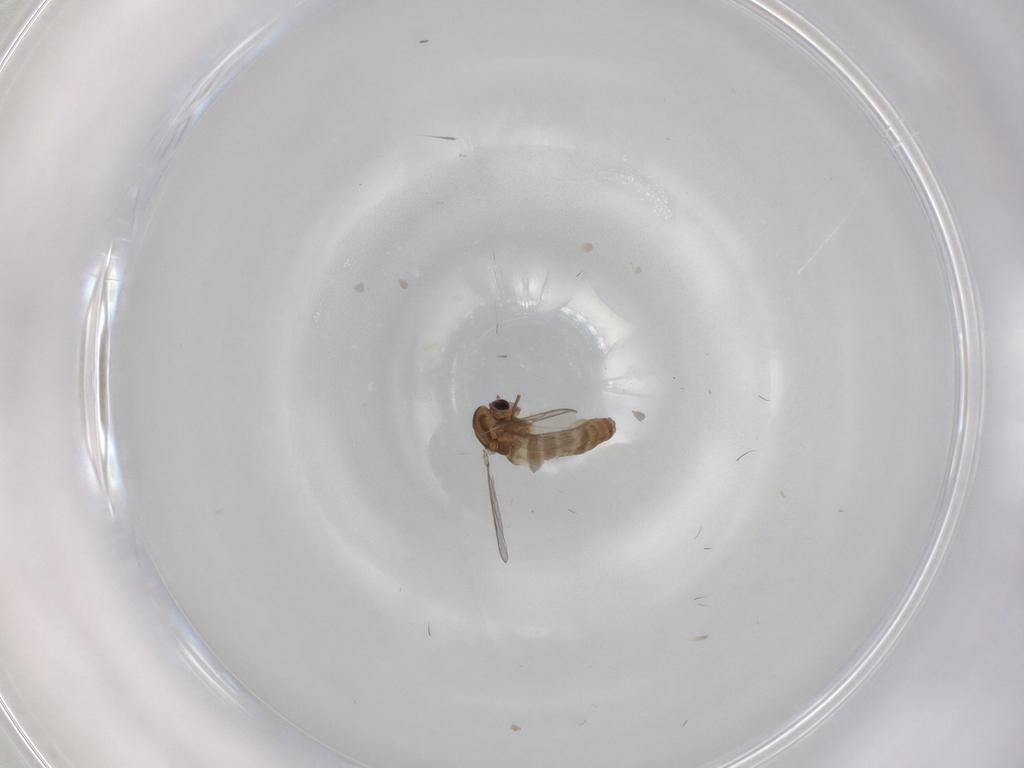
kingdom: Animalia
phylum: Arthropoda
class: Insecta
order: Diptera
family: Chironomidae
